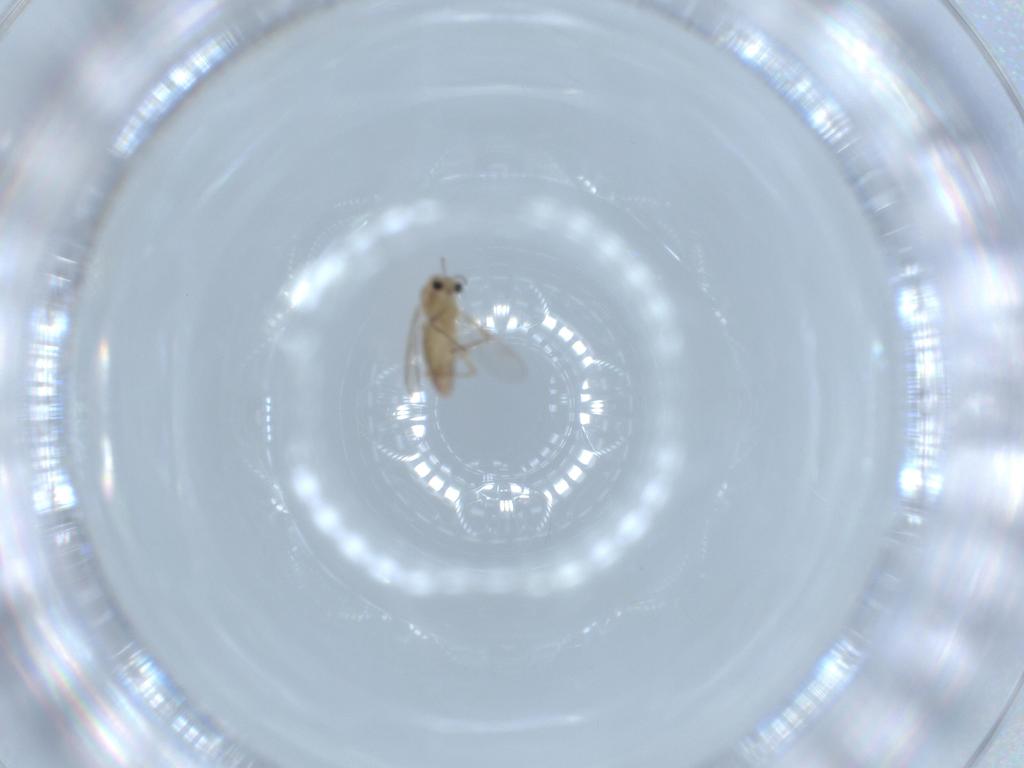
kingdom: Animalia
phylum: Arthropoda
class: Insecta
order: Diptera
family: Chironomidae
